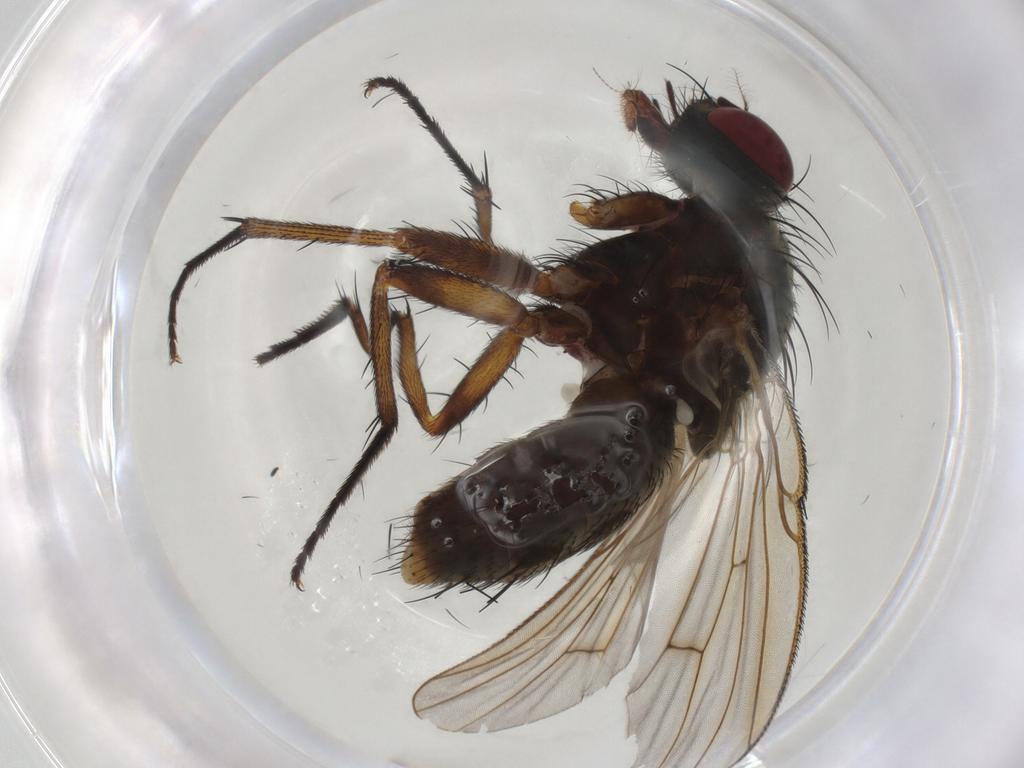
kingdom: Animalia
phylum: Arthropoda
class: Insecta
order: Diptera
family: Muscidae
